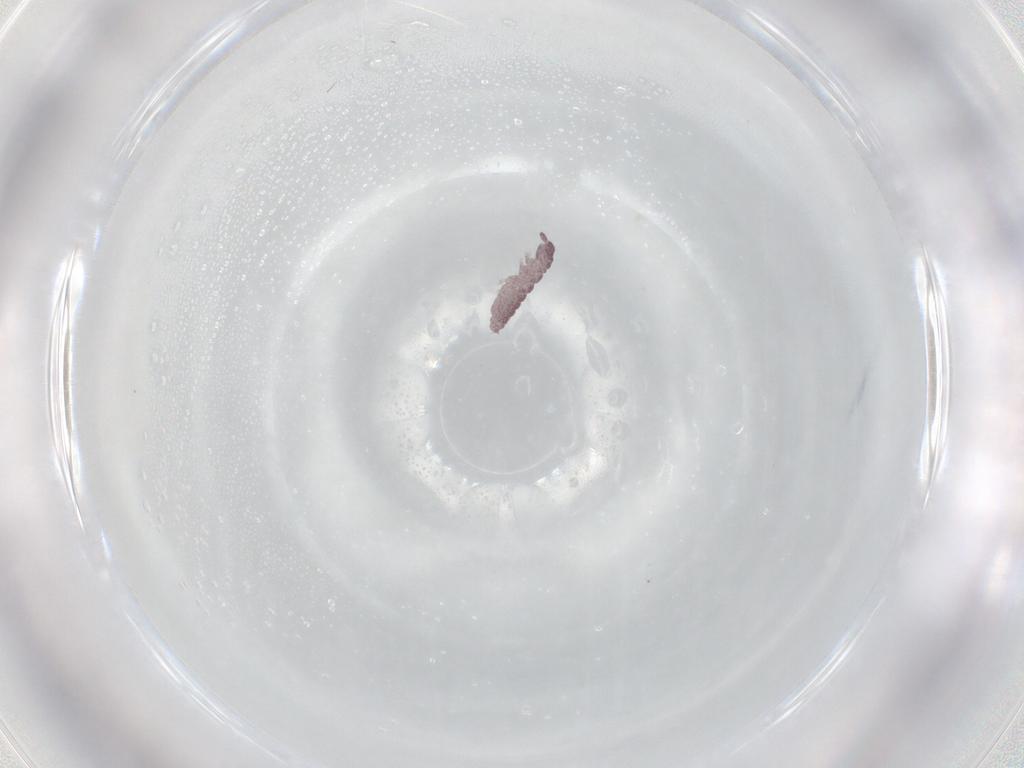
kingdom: Animalia
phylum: Arthropoda
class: Collembola
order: Poduromorpha
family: Hypogastruridae
